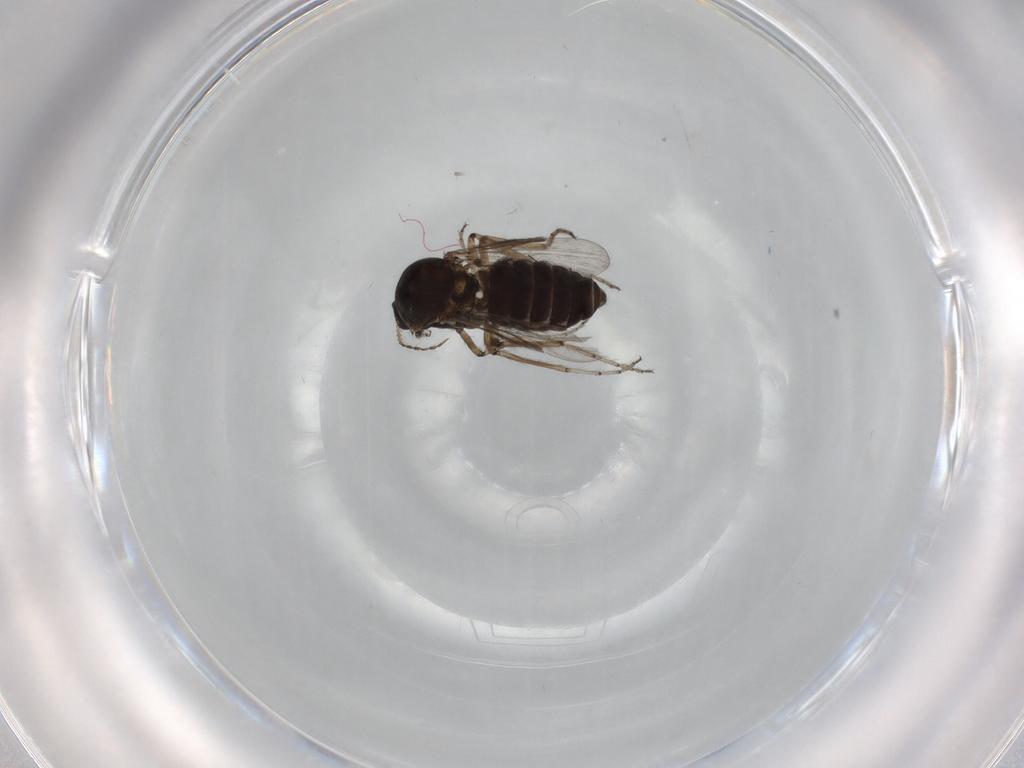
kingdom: Animalia
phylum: Arthropoda
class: Insecta
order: Diptera
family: Ceratopogonidae
